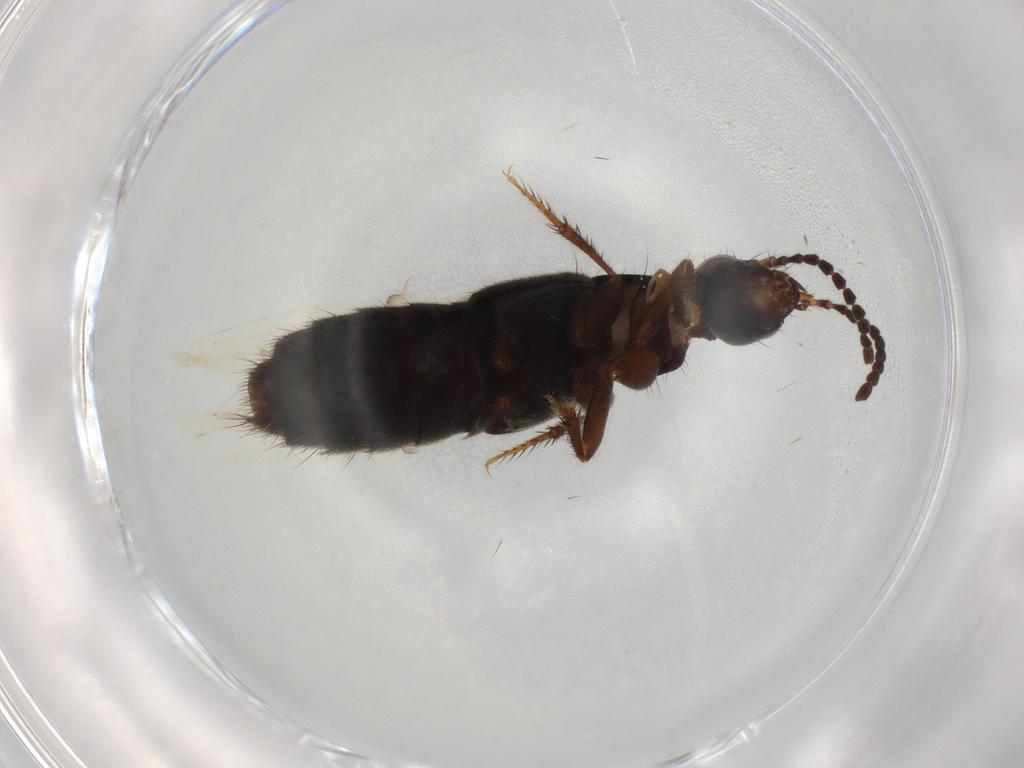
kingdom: Animalia
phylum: Arthropoda
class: Insecta
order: Coleoptera
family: Staphylinidae
